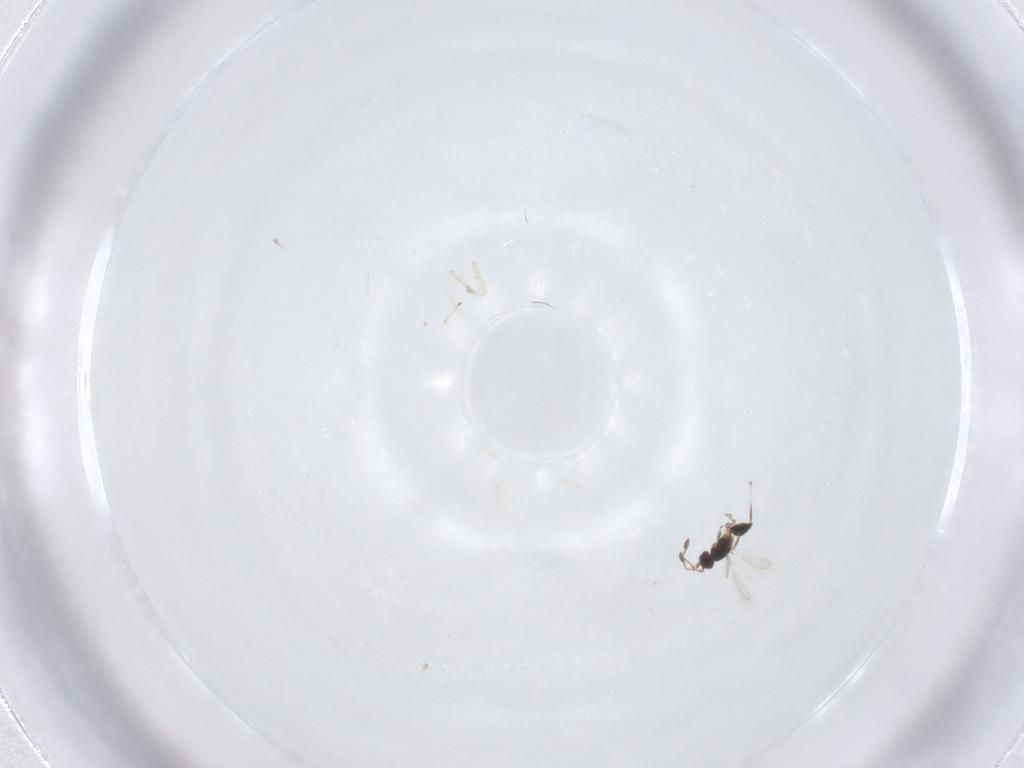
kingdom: Animalia
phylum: Arthropoda
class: Insecta
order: Hymenoptera
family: Mymaridae
